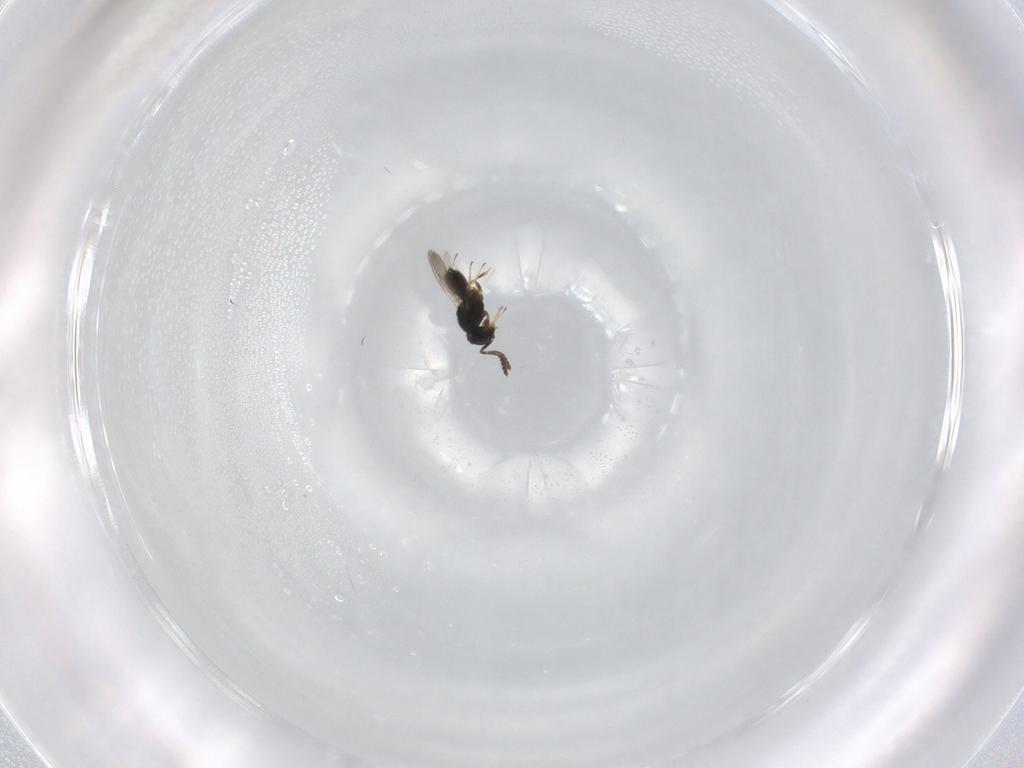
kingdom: Animalia
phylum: Arthropoda
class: Insecta
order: Hymenoptera
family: Scelionidae
